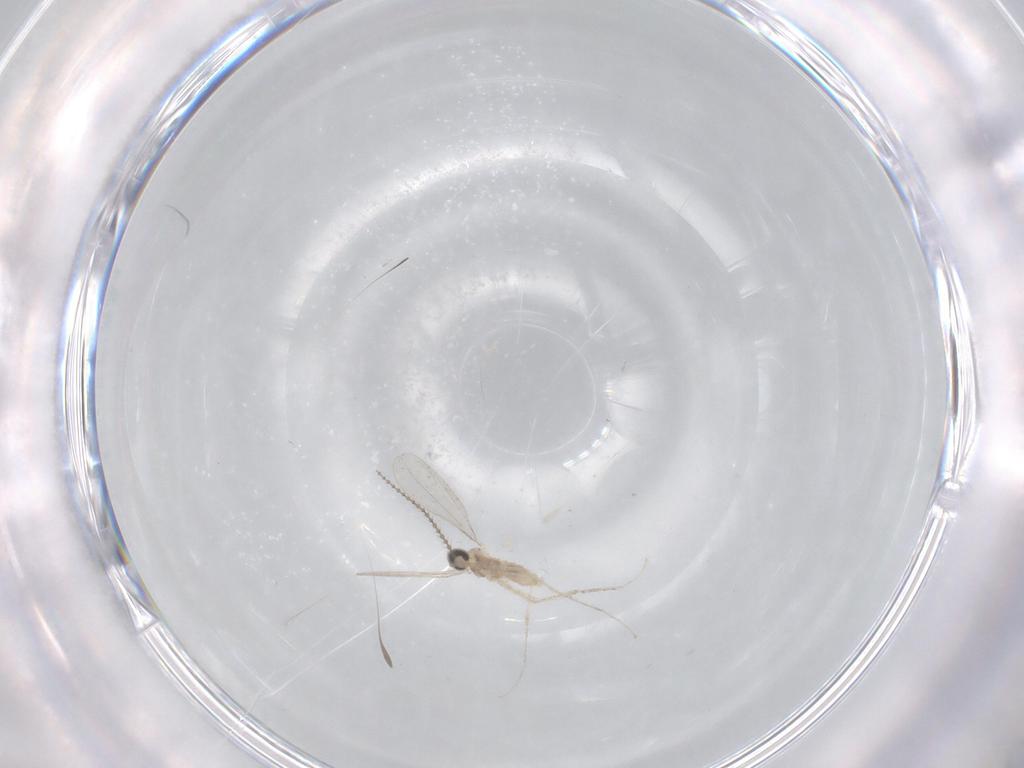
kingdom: Animalia
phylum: Arthropoda
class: Insecta
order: Diptera
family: Cecidomyiidae
